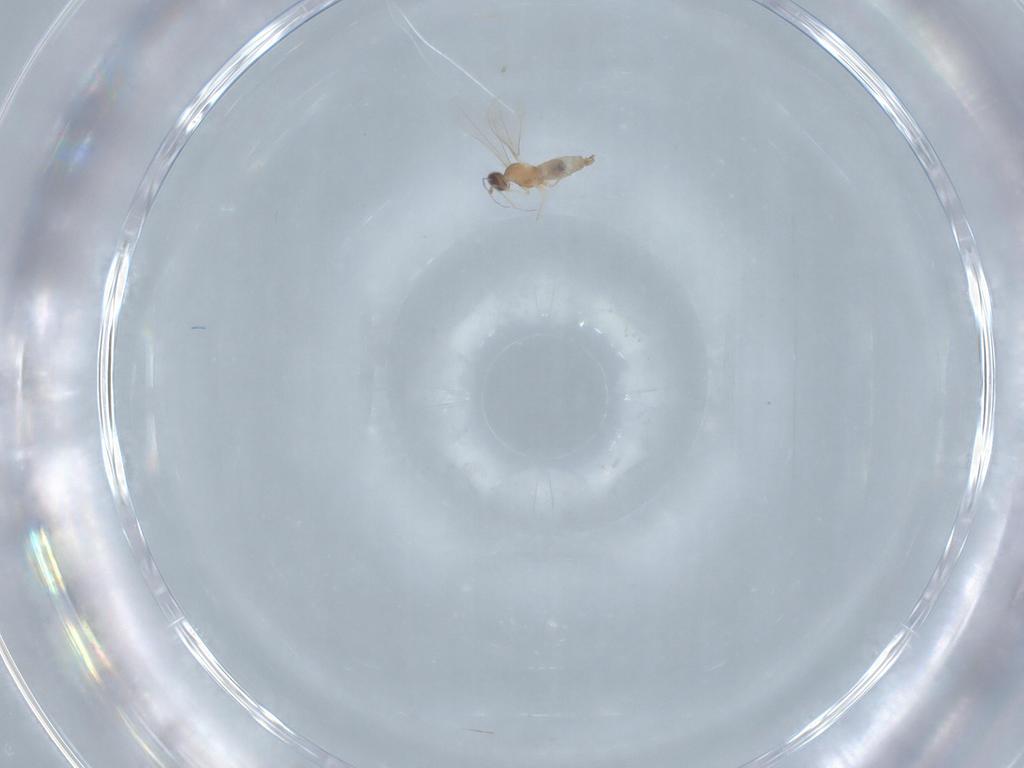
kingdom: Animalia
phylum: Arthropoda
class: Insecta
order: Diptera
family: Cecidomyiidae
